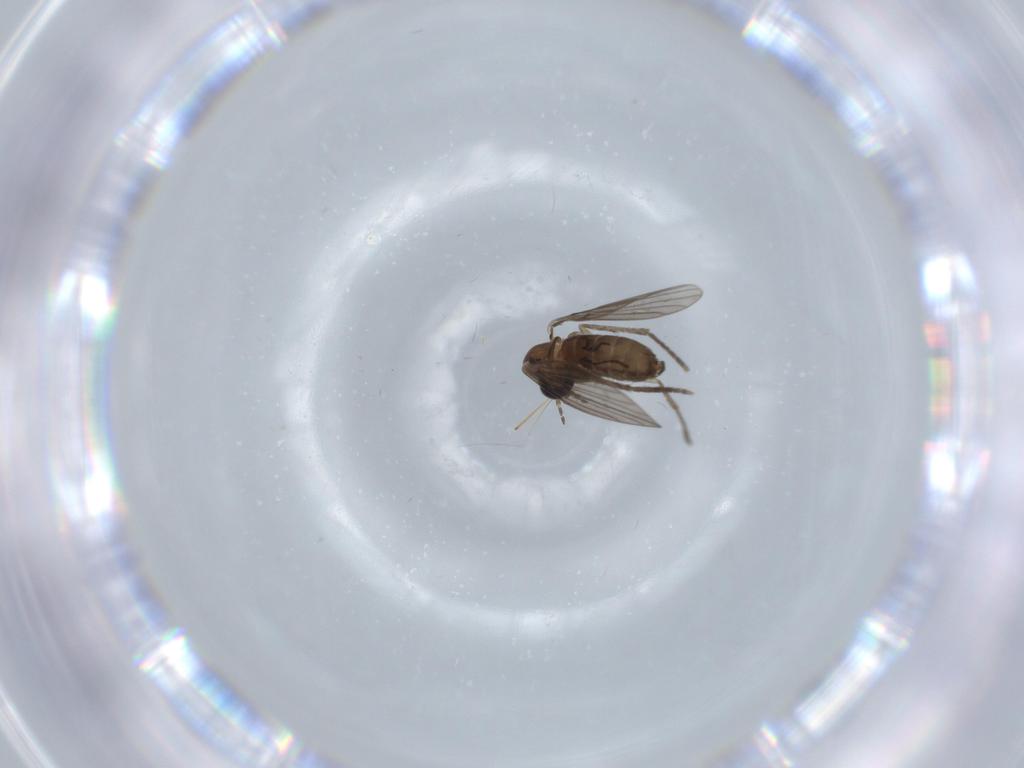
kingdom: Animalia
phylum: Arthropoda
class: Insecta
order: Diptera
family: Psychodidae
